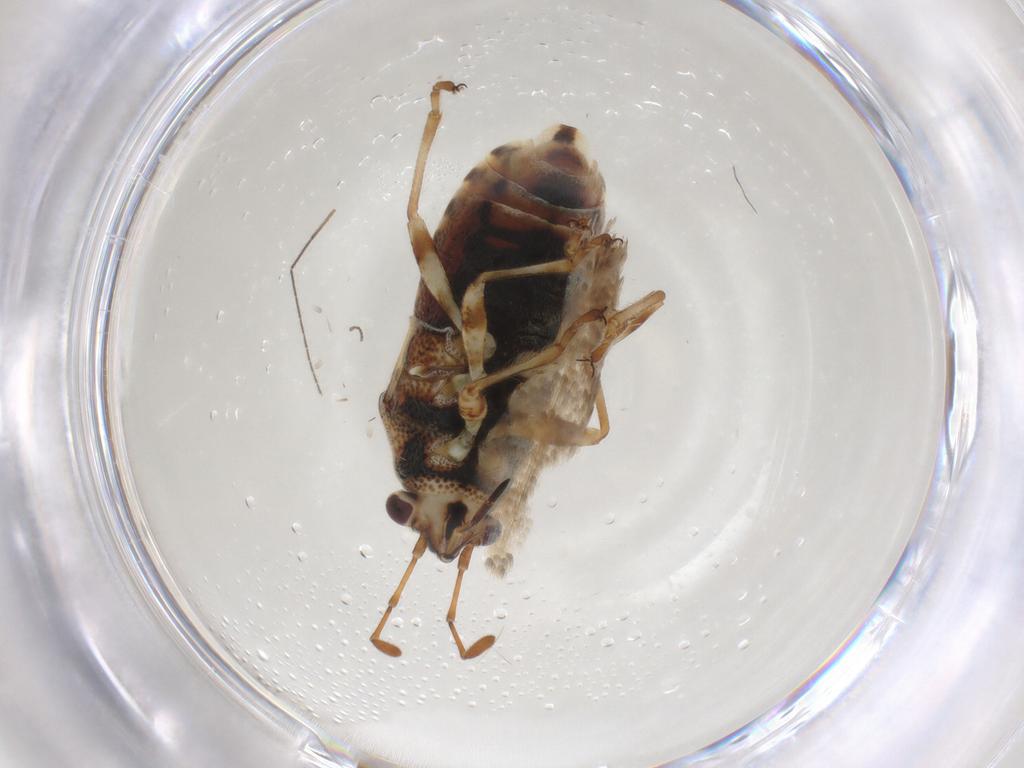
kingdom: Animalia
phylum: Arthropoda
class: Insecta
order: Hemiptera
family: Lygaeidae
